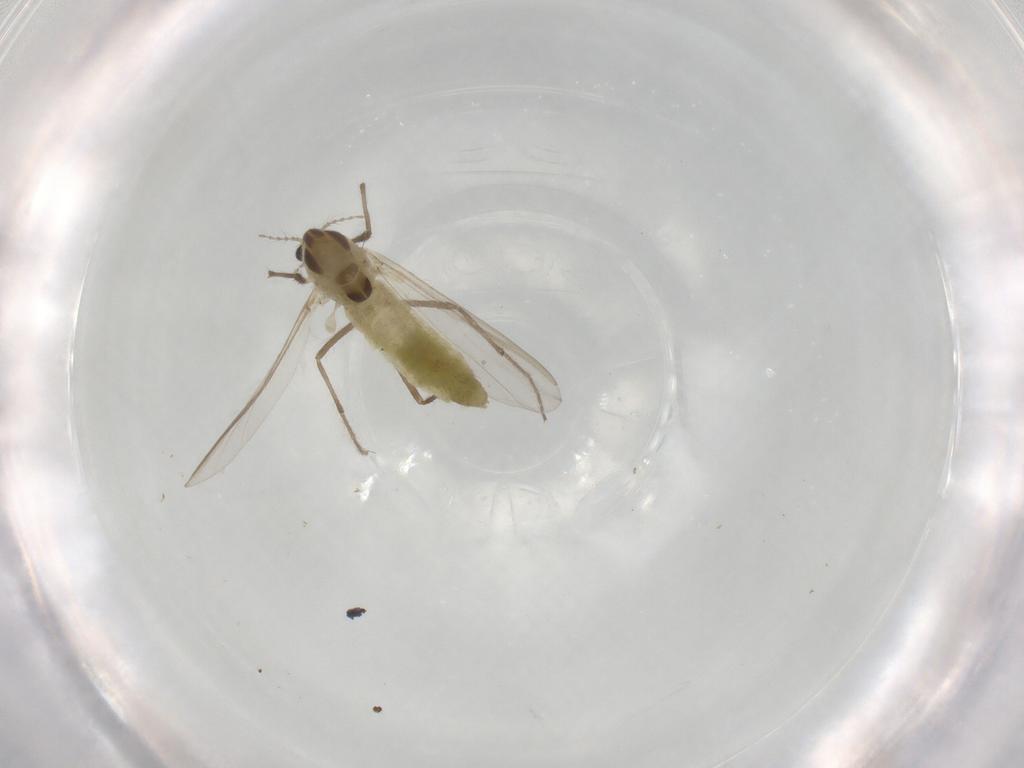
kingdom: Animalia
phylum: Arthropoda
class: Insecta
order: Diptera
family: Chironomidae
